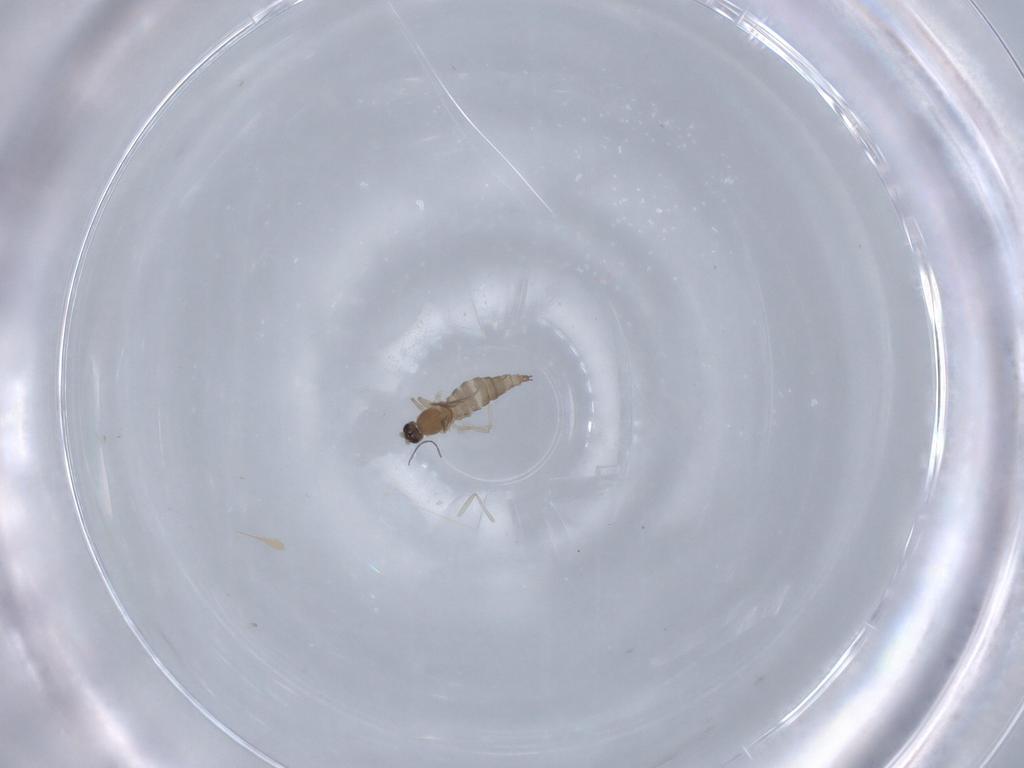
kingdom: Animalia
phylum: Arthropoda
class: Insecta
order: Diptera
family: Cecidomyiidae
